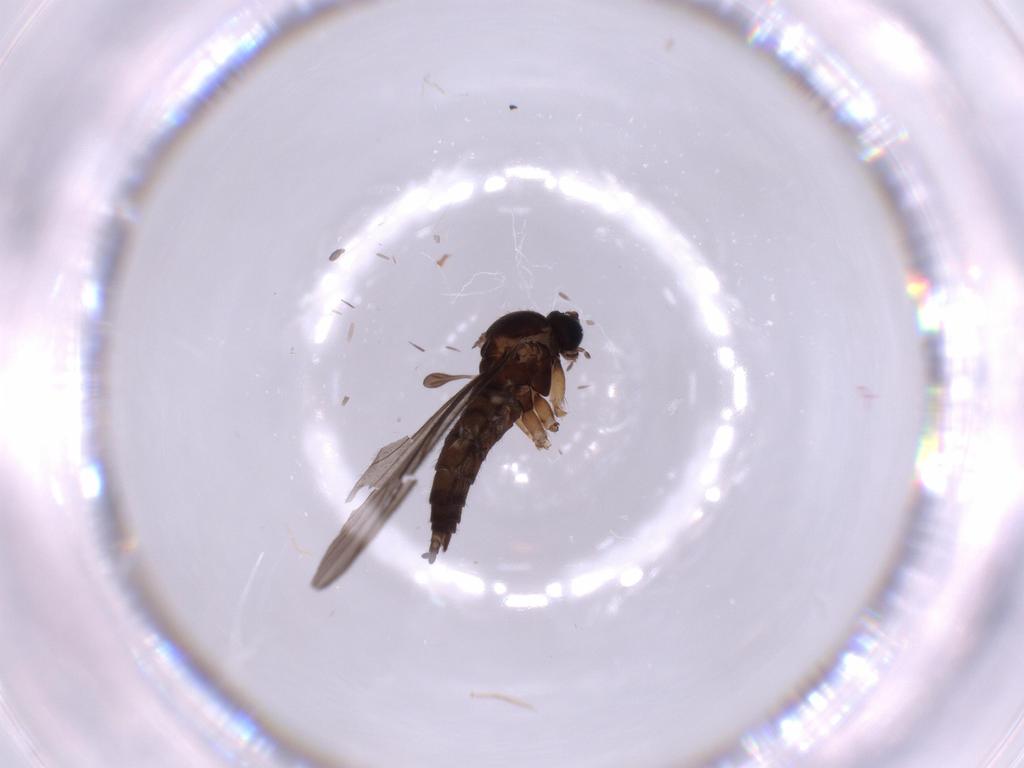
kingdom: Animalia
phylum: Arthropoda
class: Insecta
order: Diptera
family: Sciaridae
